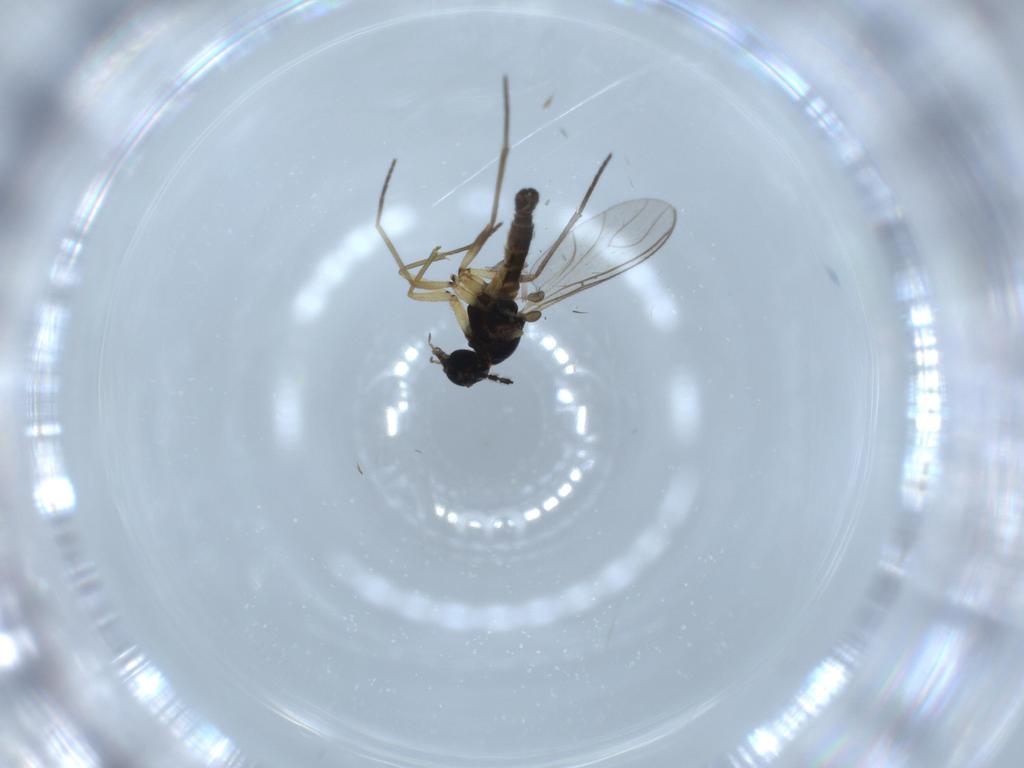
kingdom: Animalia
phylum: Arthropoda
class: Insecta
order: Diptera
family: Sciaridae
